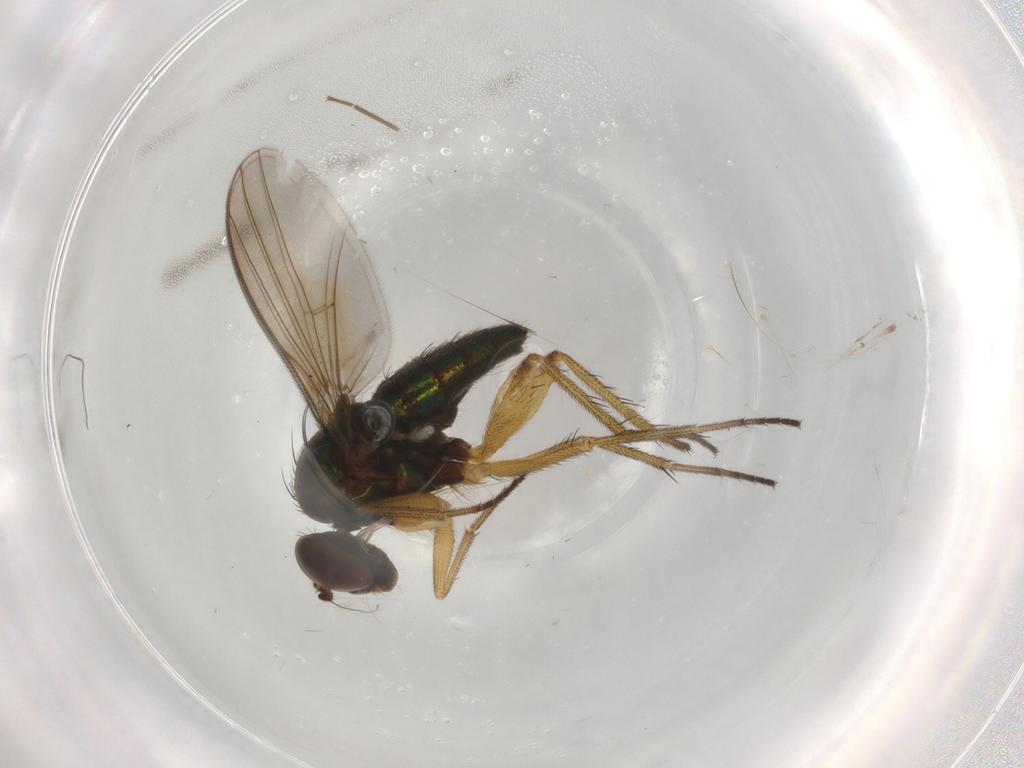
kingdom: Animalia
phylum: Arthropoda
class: Insecta
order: Diptera
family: Dolichopodidae
